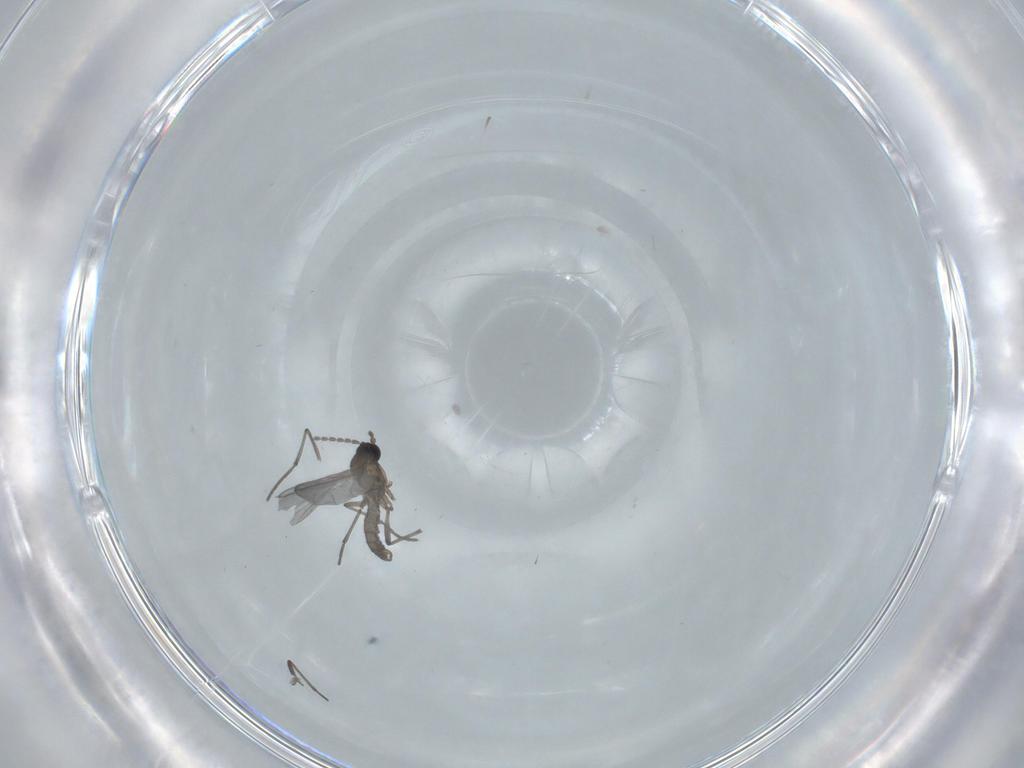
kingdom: Animalia
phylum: Arthropoda
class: Insecta
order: Diptera
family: Sciaridae
